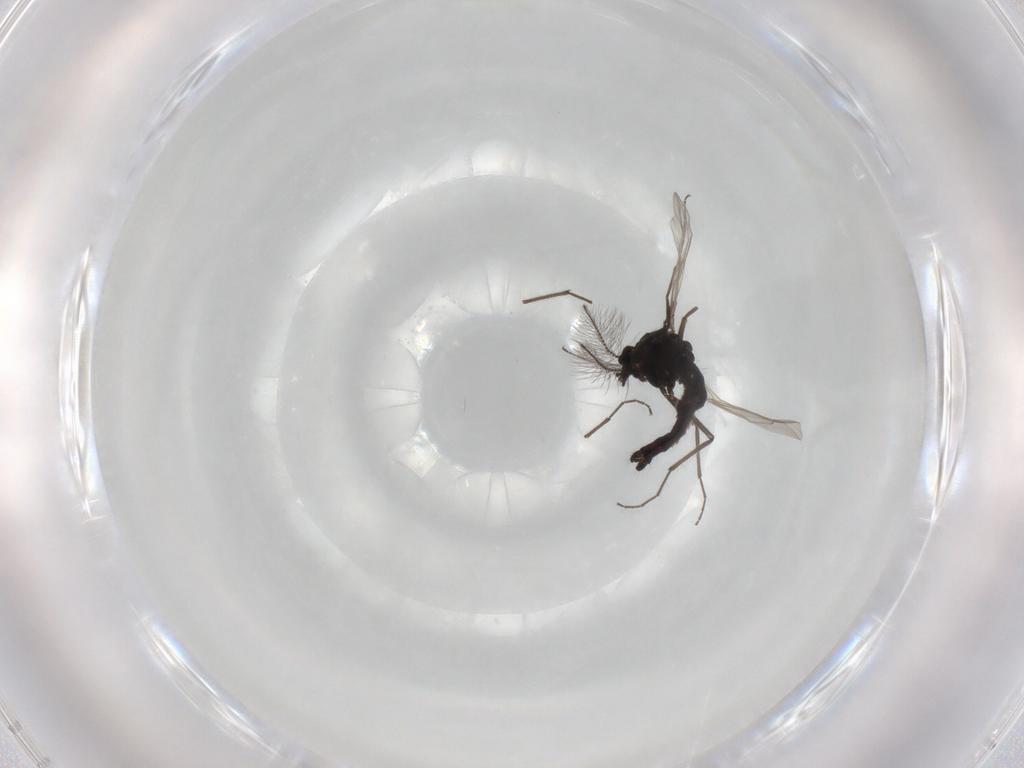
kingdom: Animalia
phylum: Arthropoda
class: Insecta
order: Diptera
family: Chironomidae
